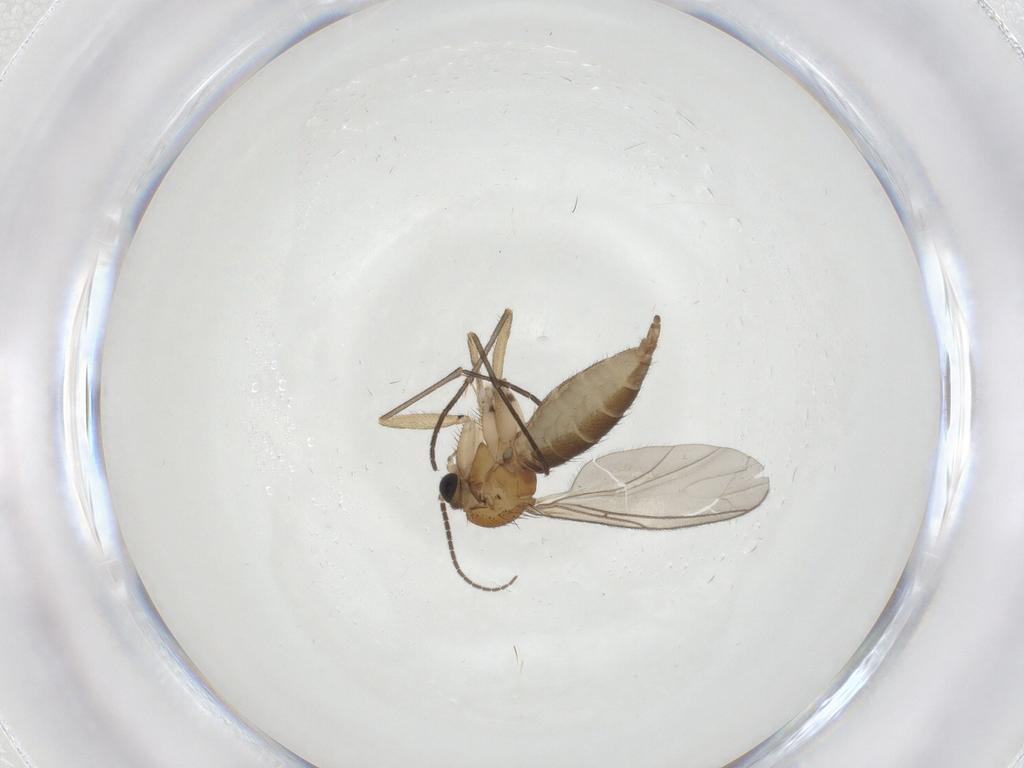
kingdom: Animalia
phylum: Arthropoda
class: Insecta
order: Diptera
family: Sciaridae
